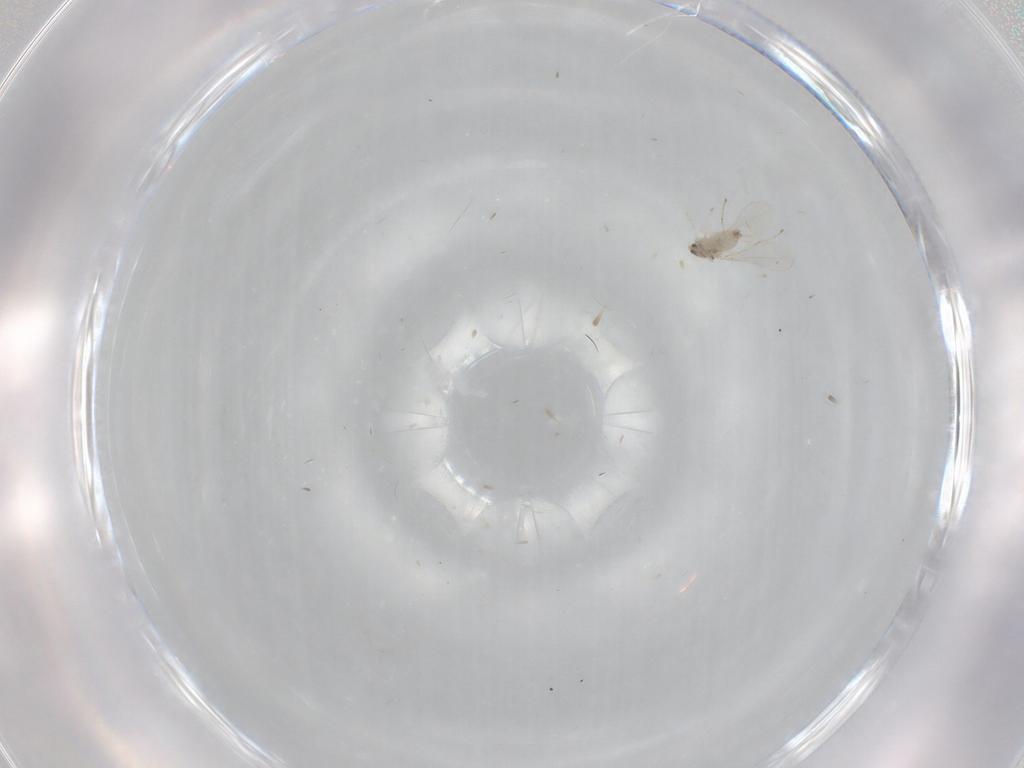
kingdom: Animalia
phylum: Arthropoda
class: Insecta
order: Diptera
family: Cecidomyiidae
